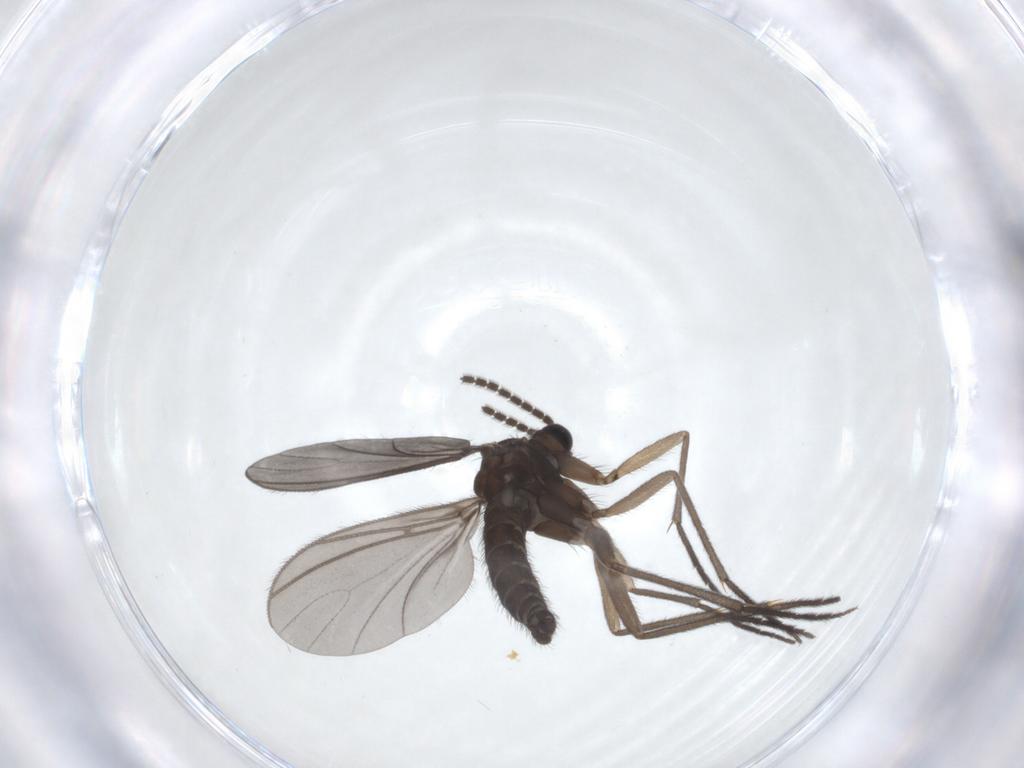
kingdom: Animalia
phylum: Arthropoda
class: Insecta
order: Diptera
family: Sciaridae
